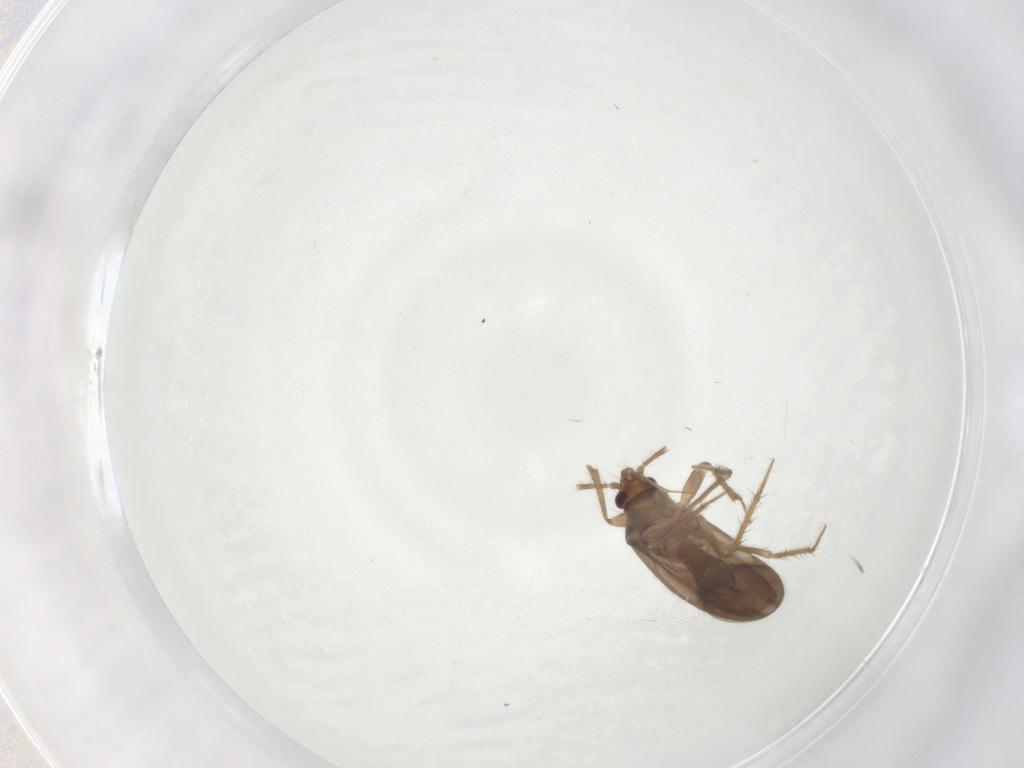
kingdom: Animalia
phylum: Arthropoda
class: Insecta
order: Hemiptera
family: Ceratocombidae
